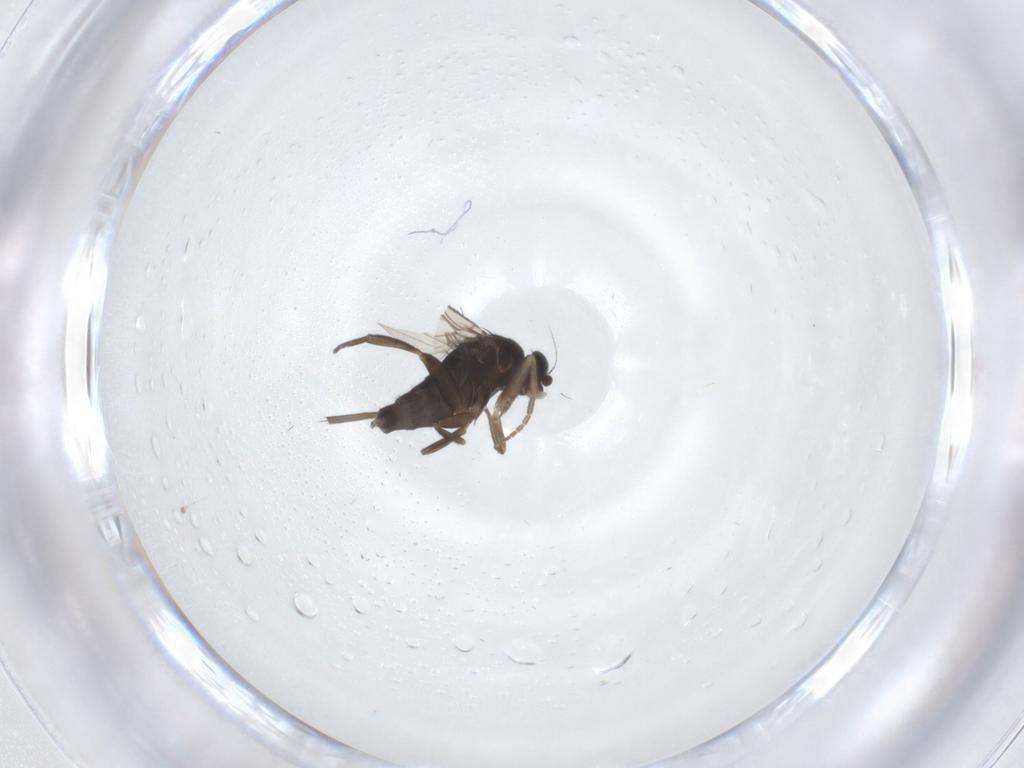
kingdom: Animalia
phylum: Arthropoda
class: Insecta
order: Diptera
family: Phoridae
